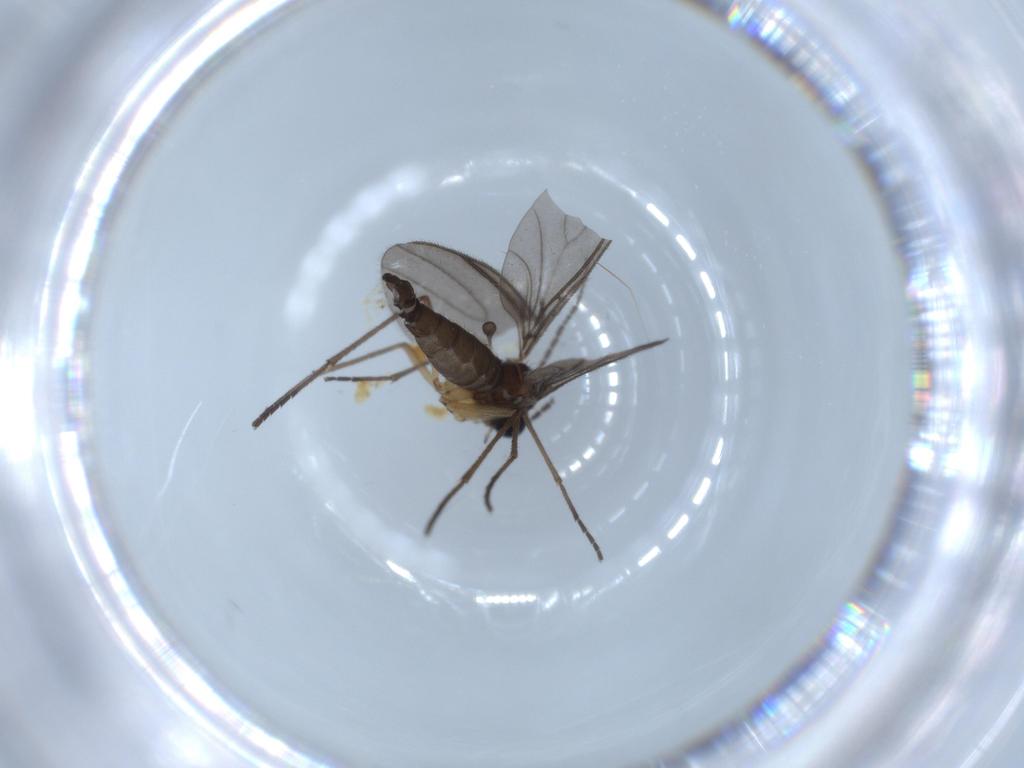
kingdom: Animalia
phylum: Arthropoda
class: Insecta
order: Diptera
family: Sciaridae
